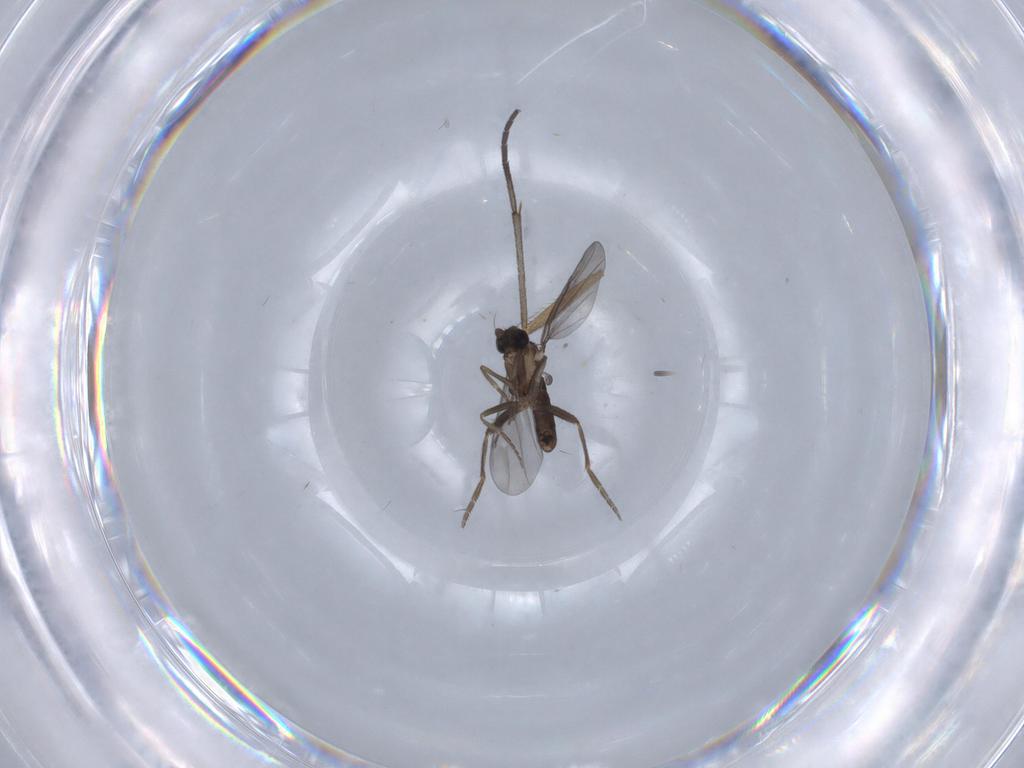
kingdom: Animalia
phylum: Arthropoda
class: Insecta
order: Diptera
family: Sciaridae
